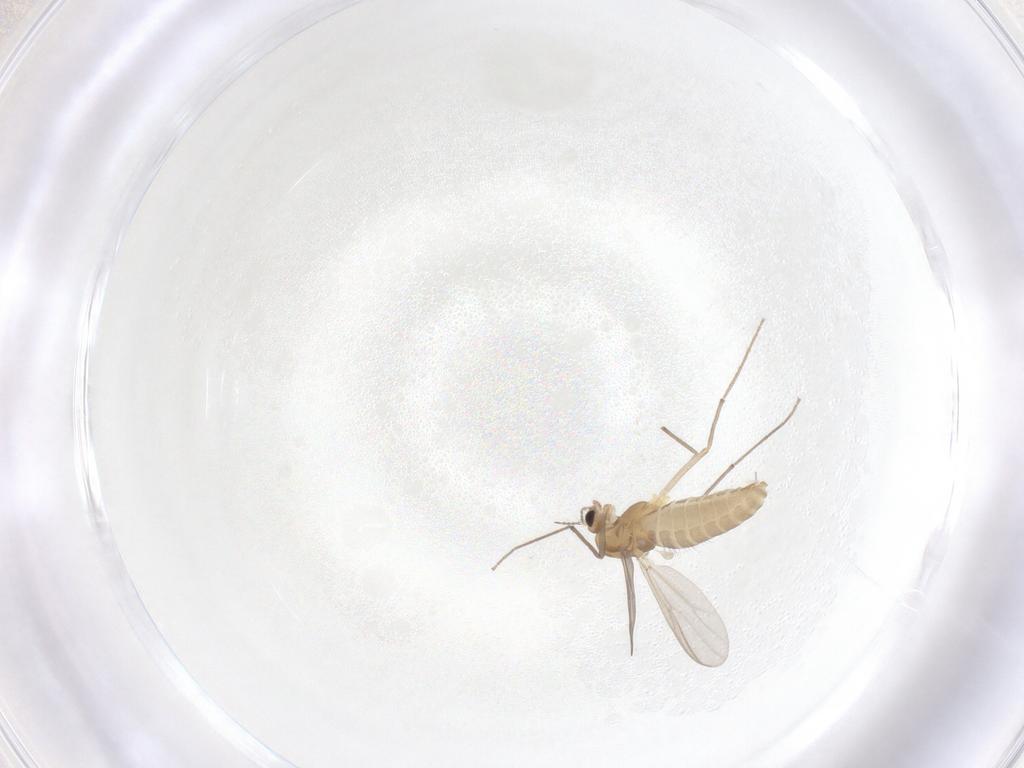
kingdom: Animalia
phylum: Arthropoda
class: Insecta
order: Diptera
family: Chironomidae
